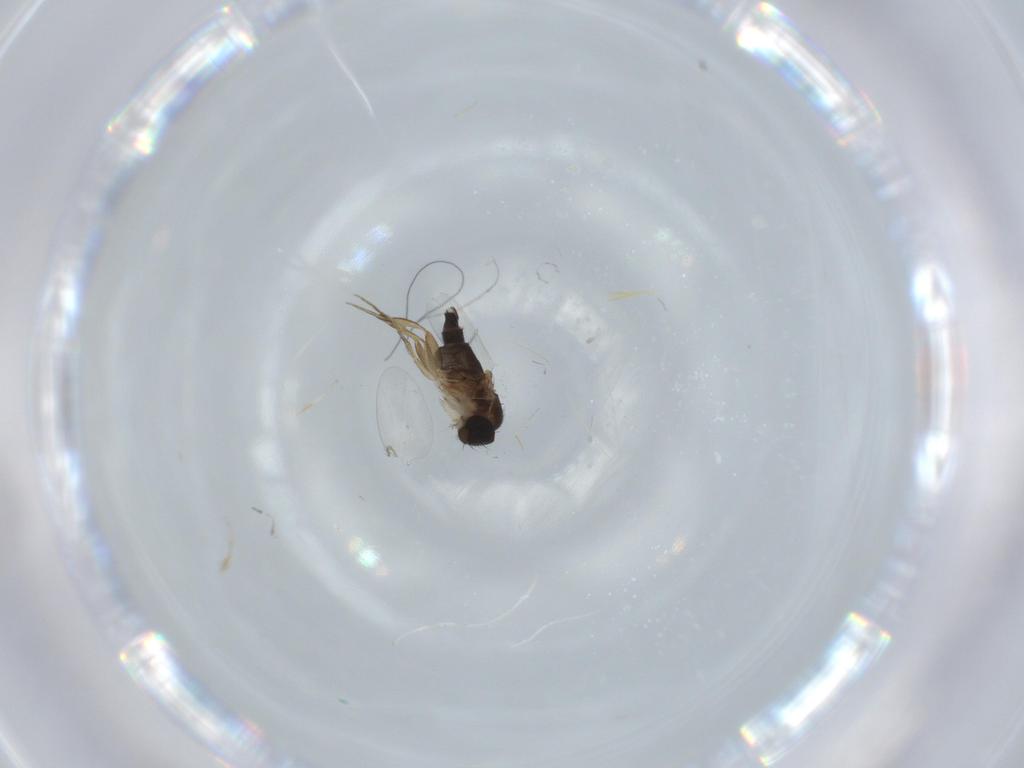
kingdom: Animalia
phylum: Arthropoda
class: Insecta
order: Diptera
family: Phoridae
